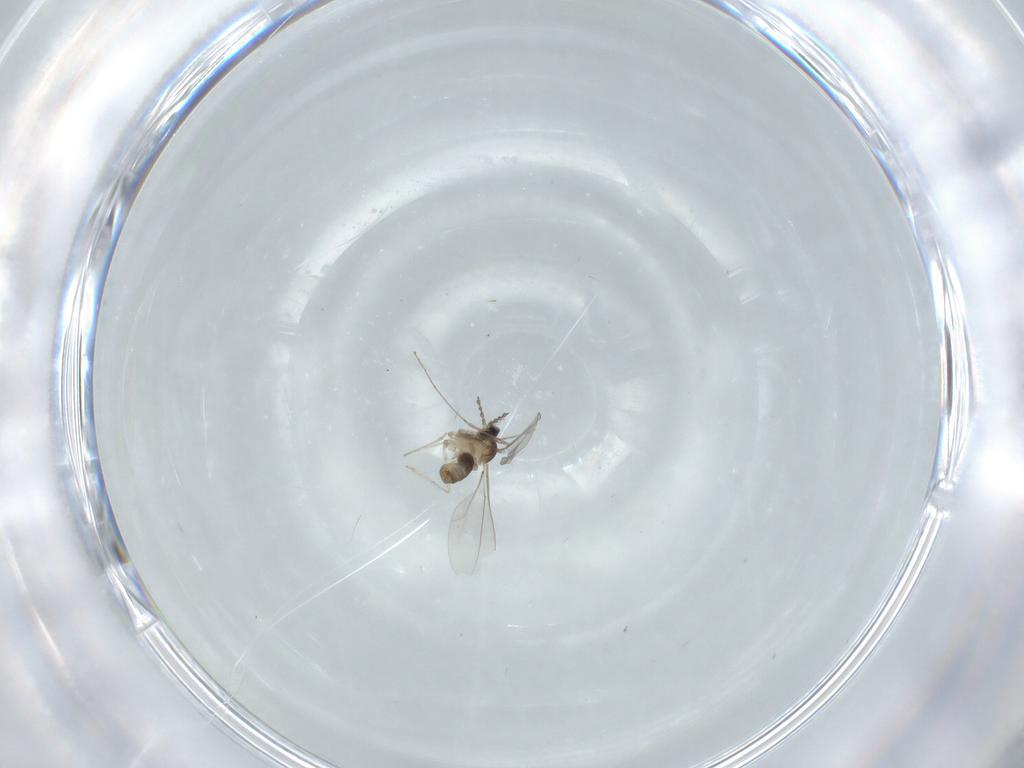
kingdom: Animalia
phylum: Arthropoda
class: Insecta
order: Diptera
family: Cecidomyiidae
